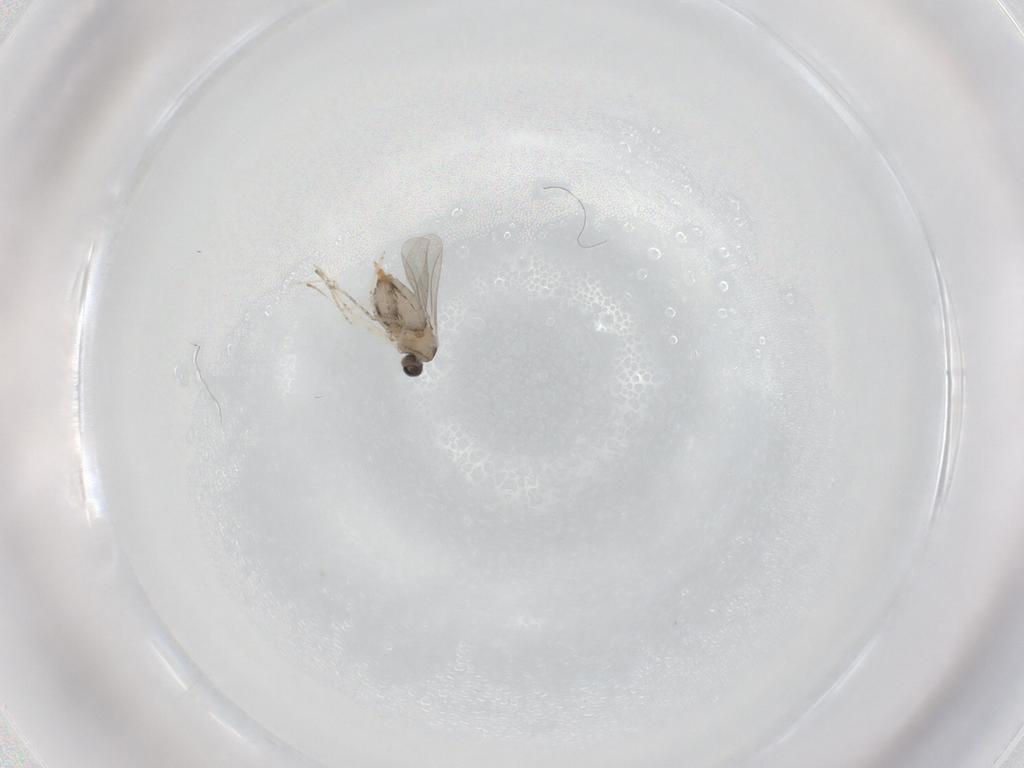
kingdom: Animalia
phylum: Arthropoda
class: Insecta
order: Diptera
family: Cecidomyiidae
